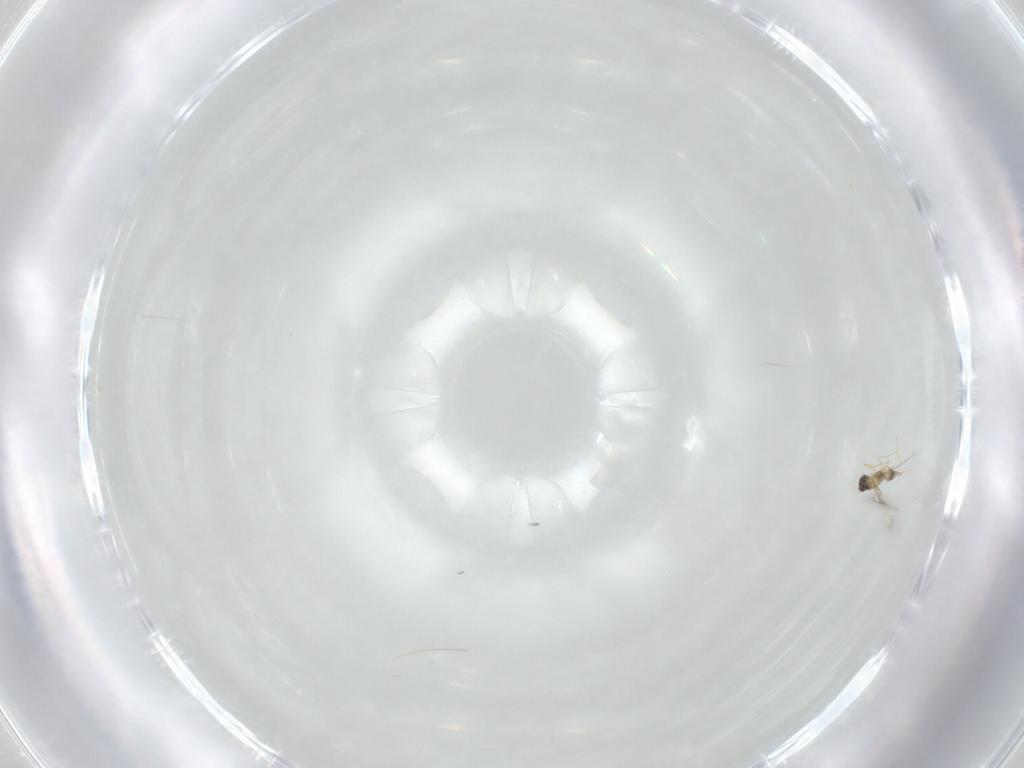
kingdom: Animalia
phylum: Arthropoda
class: Insecta
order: Hymenoptera
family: Mymaridae
